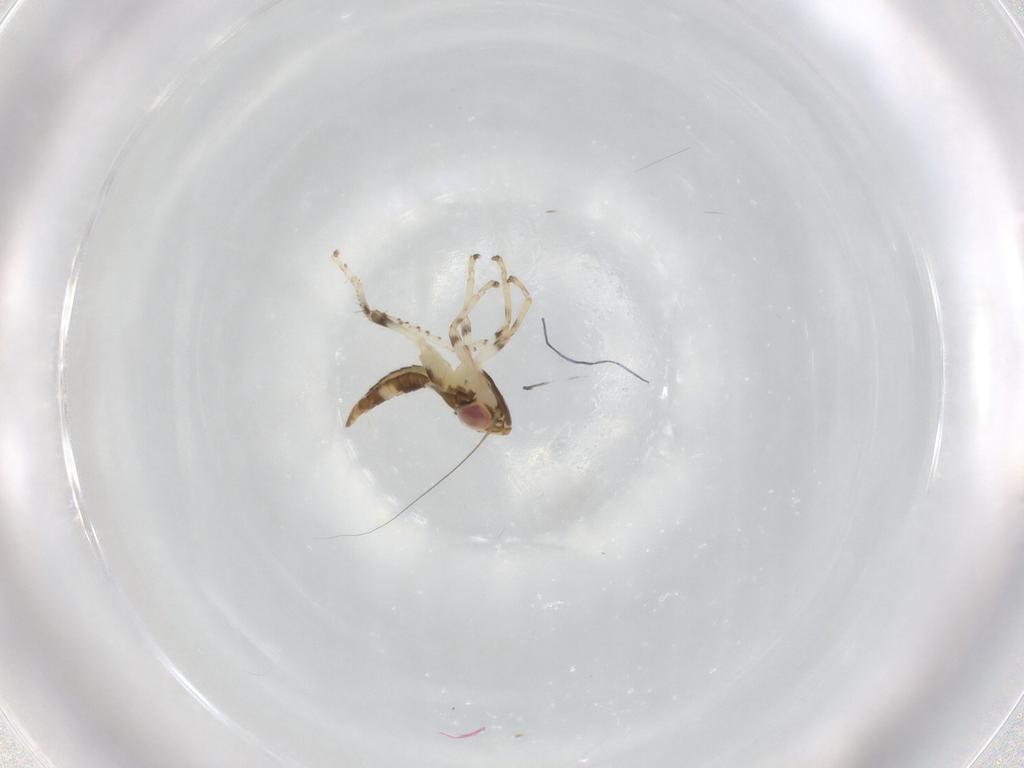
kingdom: Animalia
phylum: Arthropoda
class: Insecta
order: Hemiptera
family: Cicadellidae
